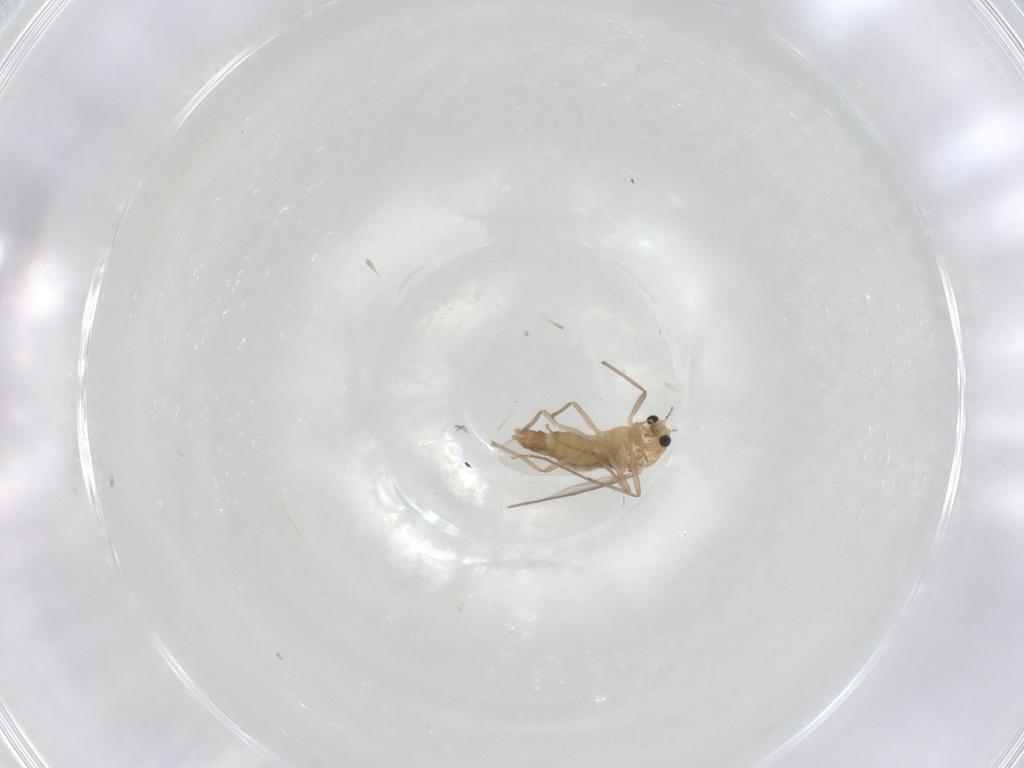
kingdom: Animalia
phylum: Arthropoda
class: Insecta
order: Diptera
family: Chironomidae
